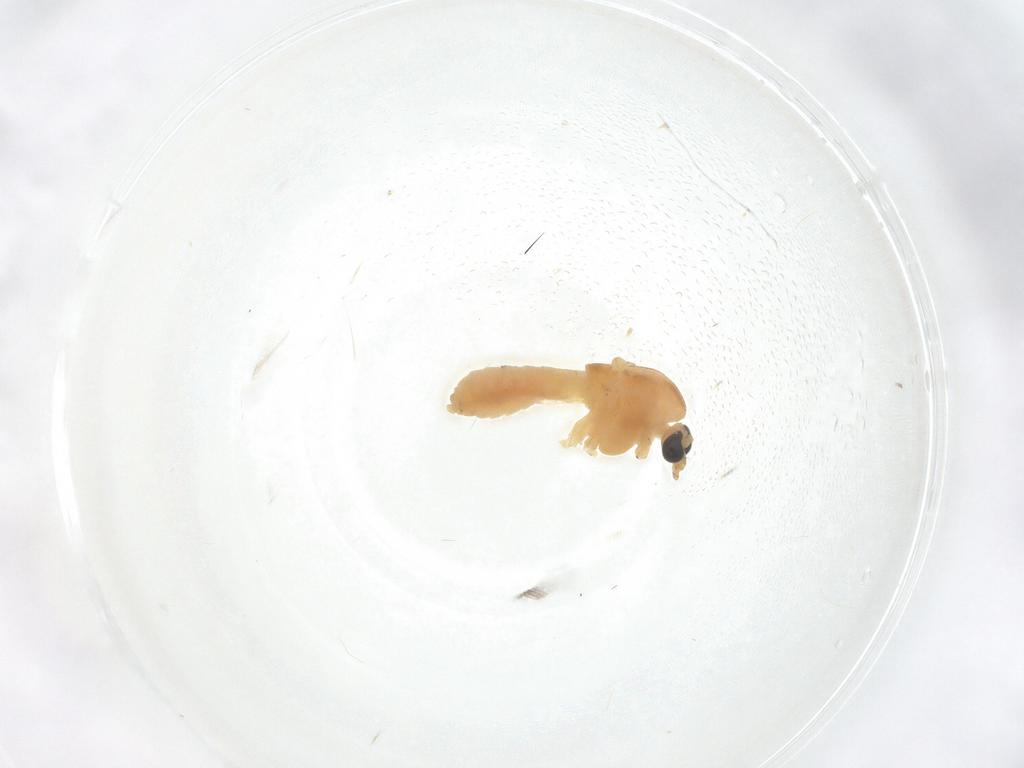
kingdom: Animalia
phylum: Arthropoda
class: Insecta
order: Diptera
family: Chironomidae
